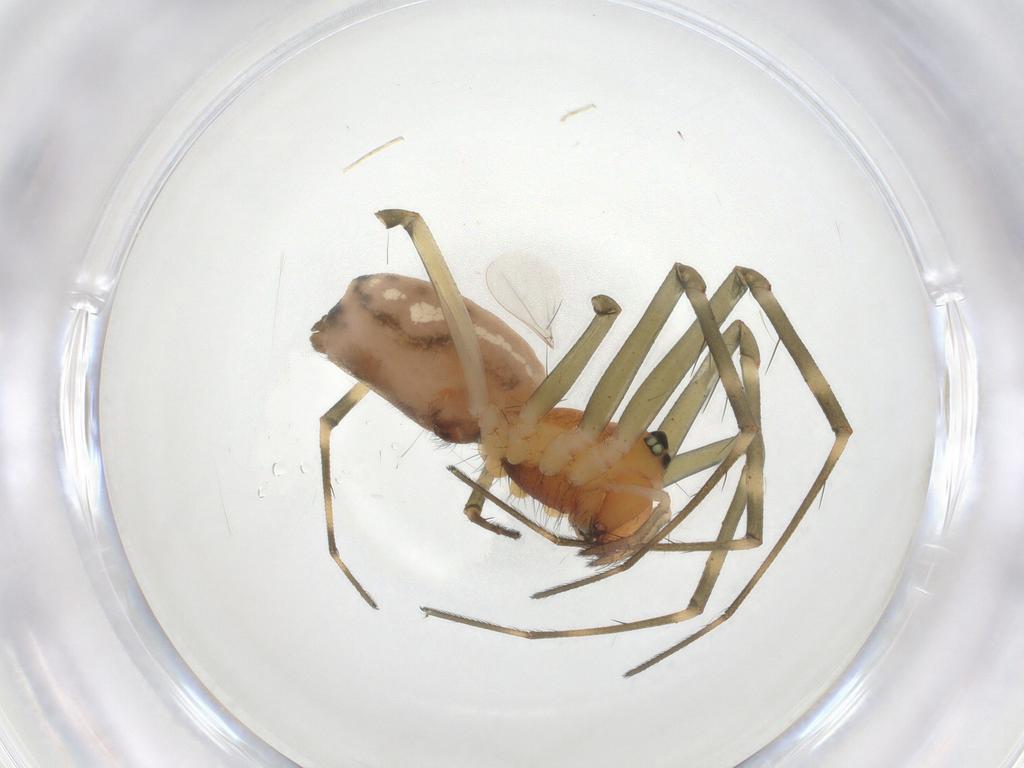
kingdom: Animalia
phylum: Arthropoda
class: Arachnida
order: Araneae
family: Linyphiidae
